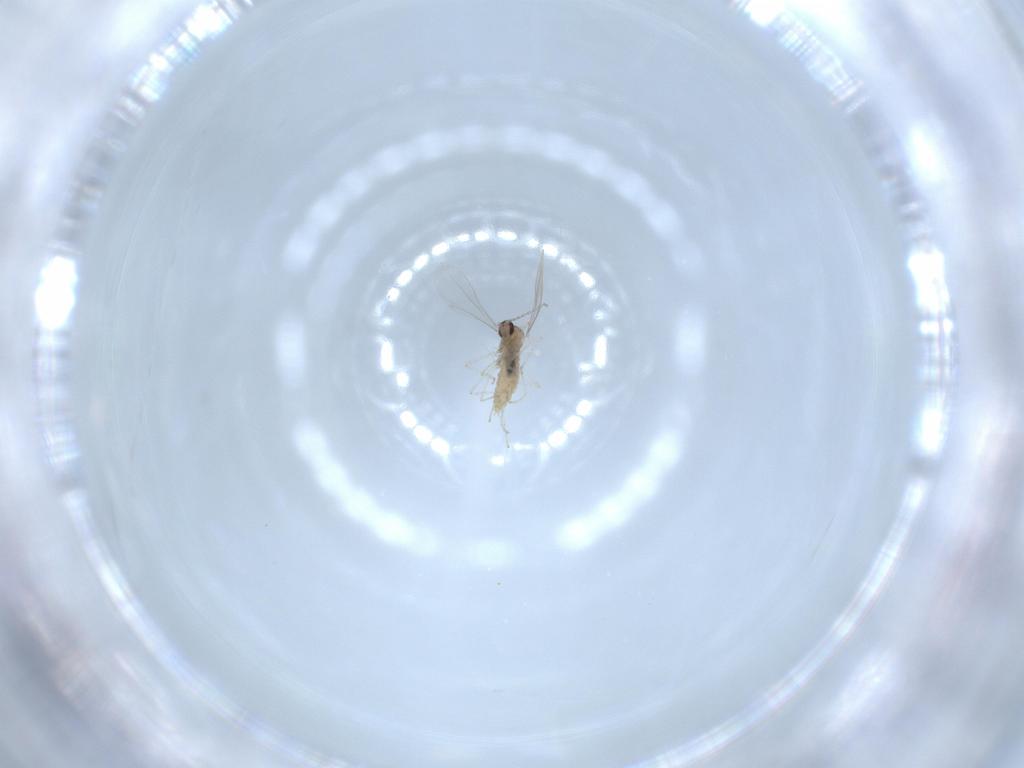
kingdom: Animalia
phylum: Arthropoda
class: Insecta
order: Diptera
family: Cecidomyiidae
